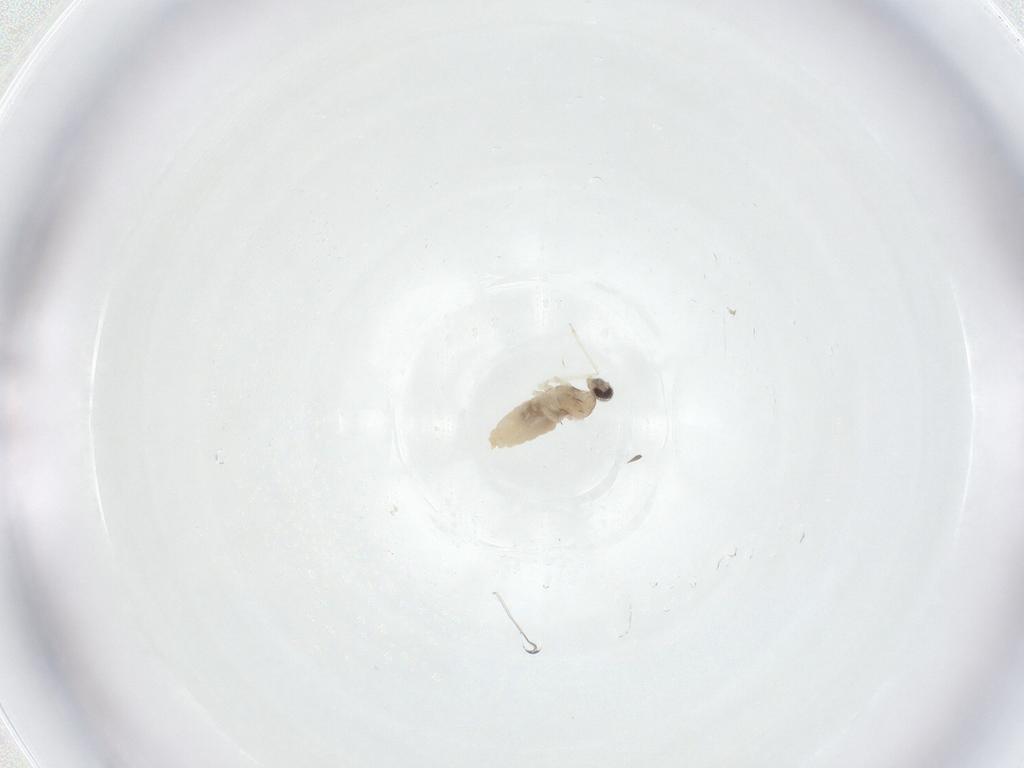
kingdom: Animalia
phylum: Arthropoda
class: Insecta
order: Diptera
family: Cecidomyiidae
